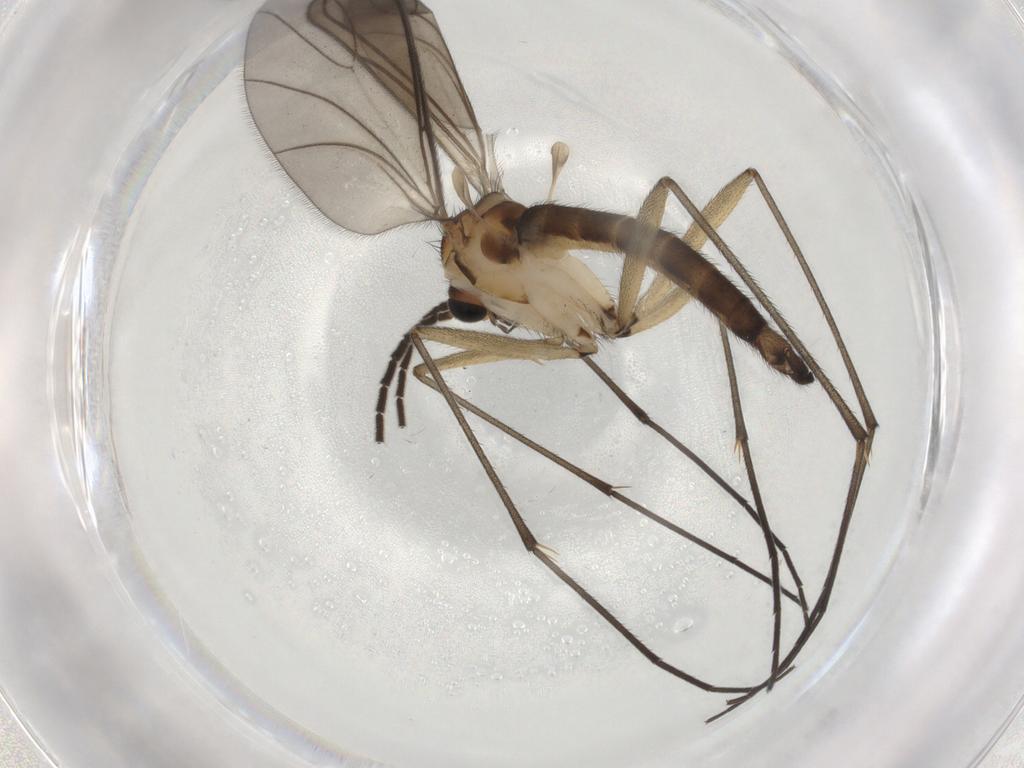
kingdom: Animalia
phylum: Arthropoda
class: Insecta
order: Diptera
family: Sciaridae
